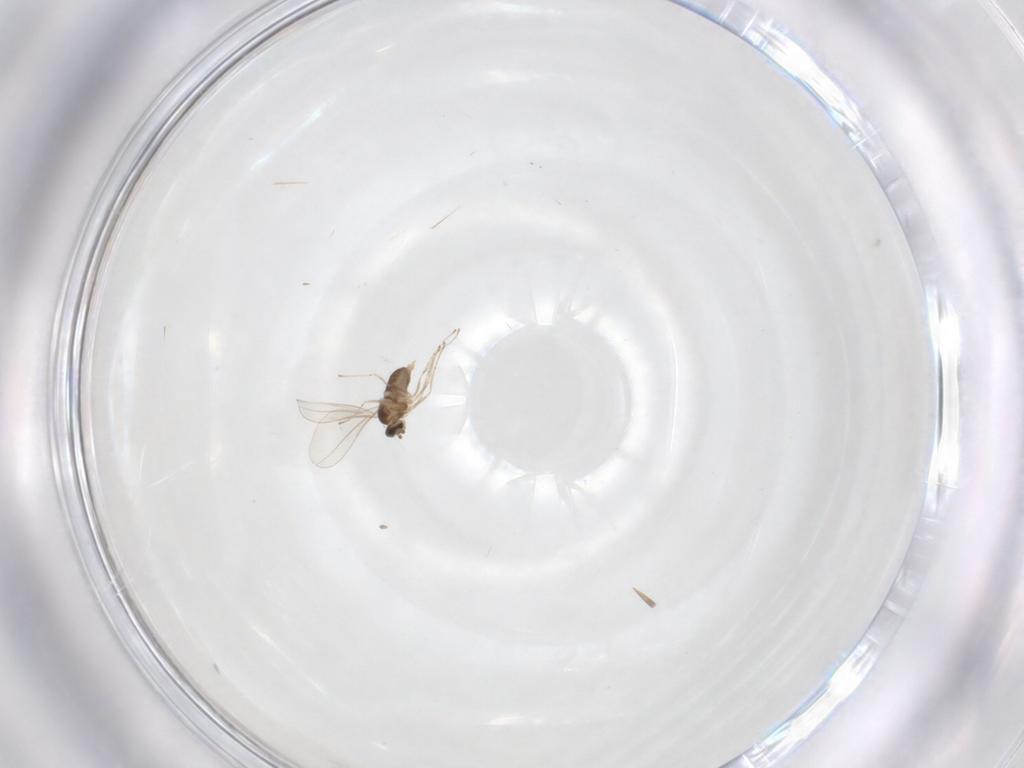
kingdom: Animalia
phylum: Arthropoda
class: Insecta
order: Diptera
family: Cecidomyiidae
